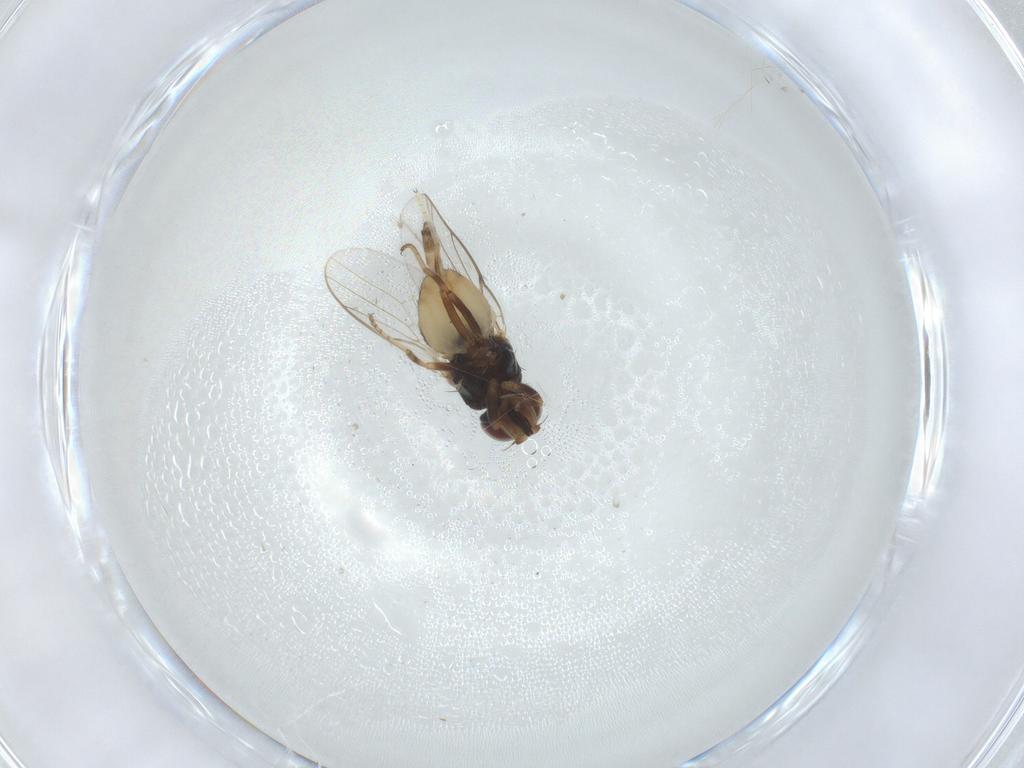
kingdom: Animalia
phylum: Arthropoda
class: Insecta
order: Diptera
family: Chloropidae
